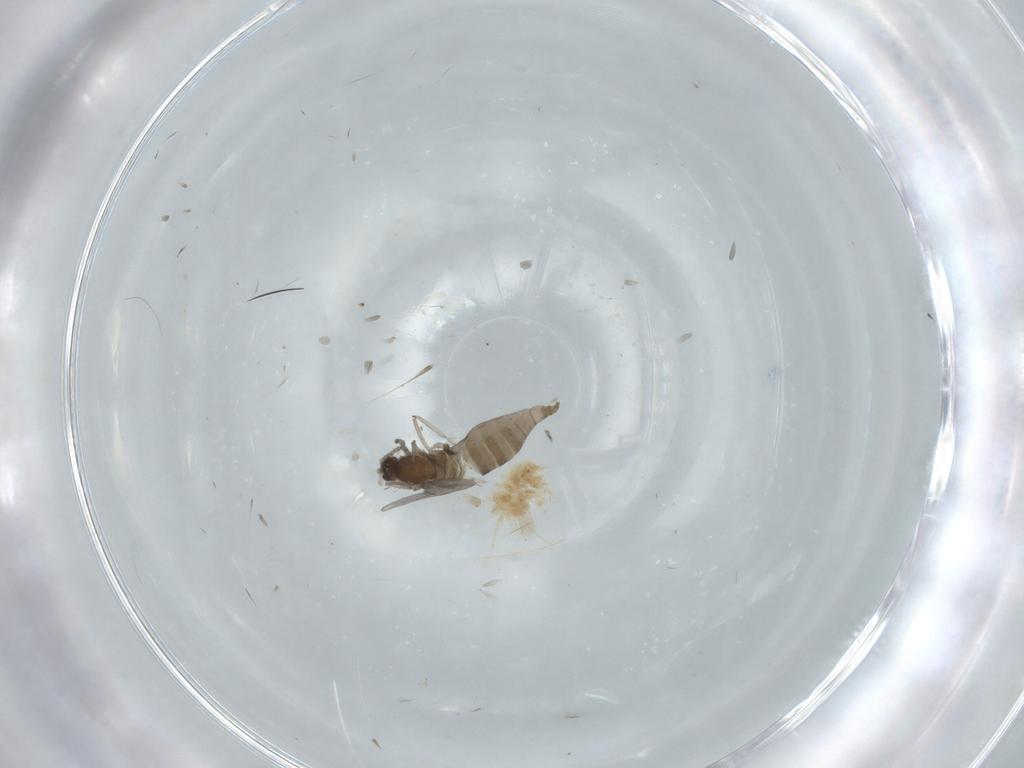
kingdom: Animalia
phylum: Arthropoda
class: Insecta
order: Diptera
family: Cecidomyiidae
